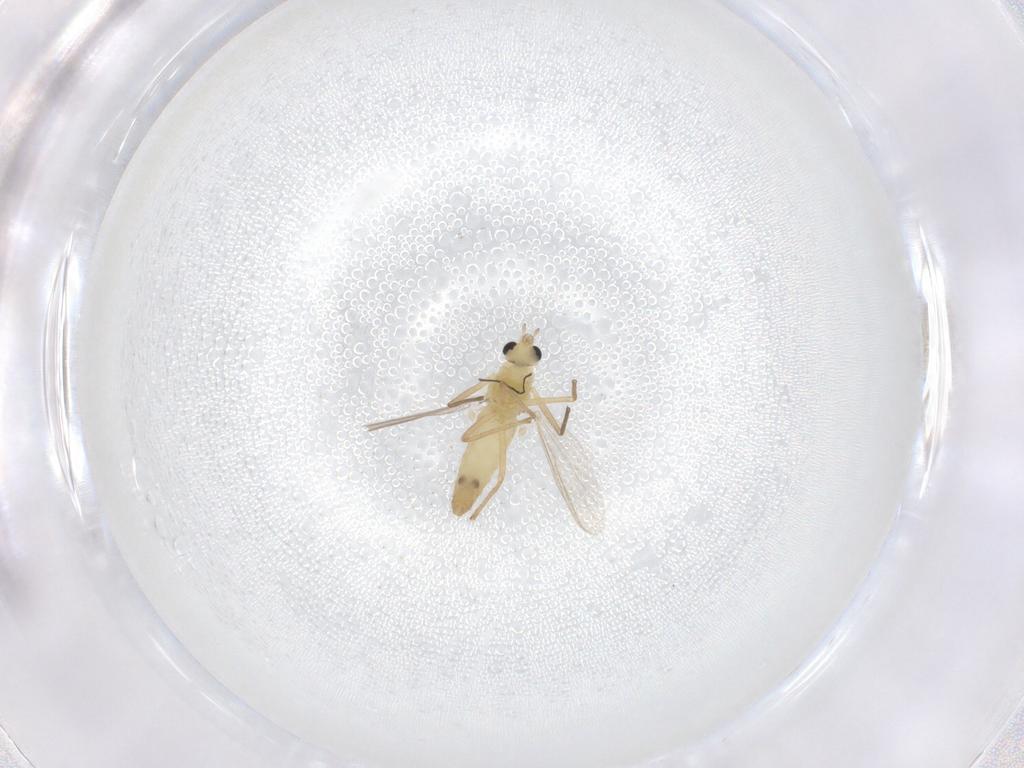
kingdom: Animalia
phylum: Arthropoda
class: Insecta
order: Diptera
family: Chironomidae
